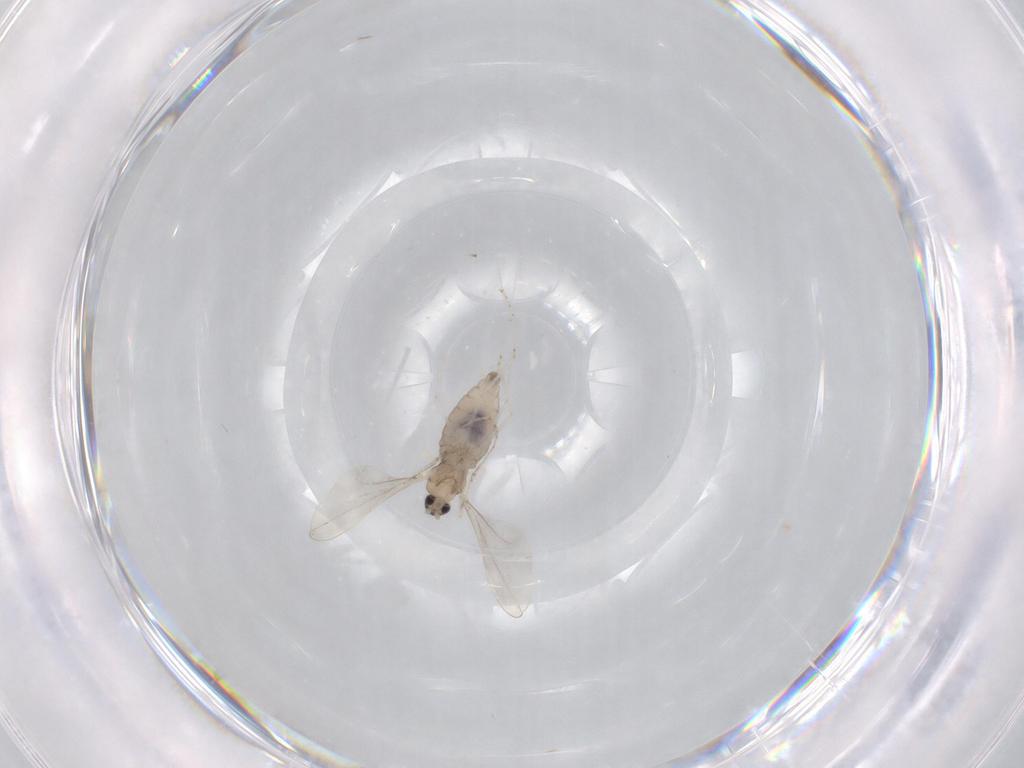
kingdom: Animalia
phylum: Arthropoda
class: Insecta
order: Diptera
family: Cecidomyiidae
